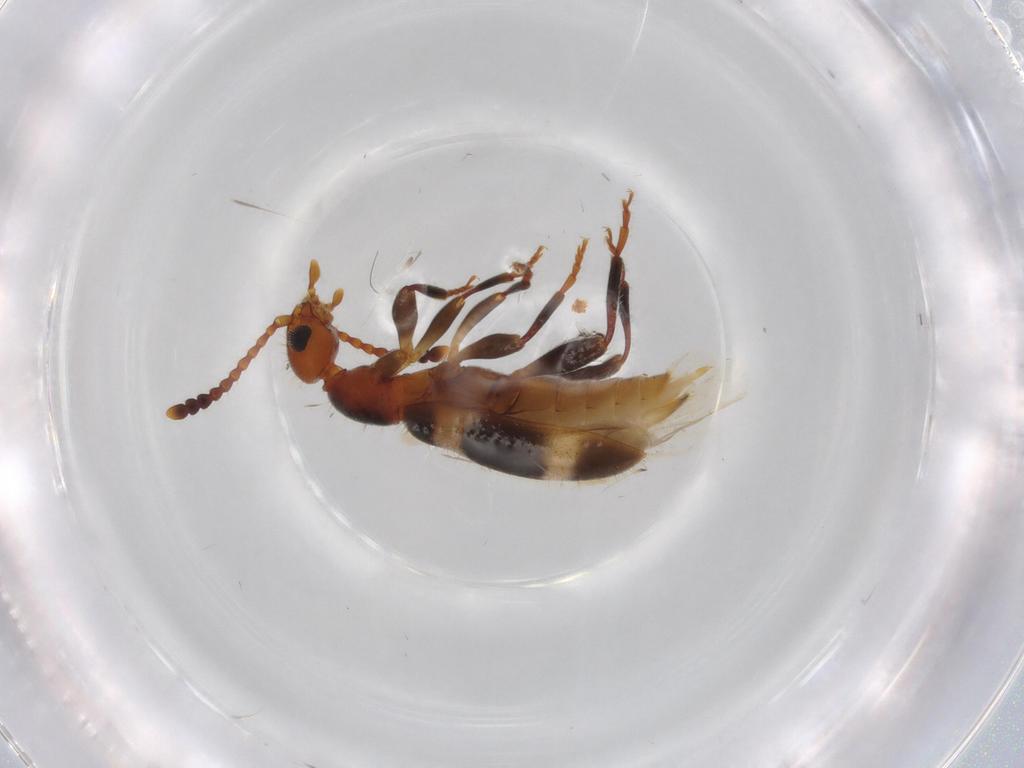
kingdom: Animalia
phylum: Arthropoda
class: Insecta
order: Coleoptera
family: Anthicidae
